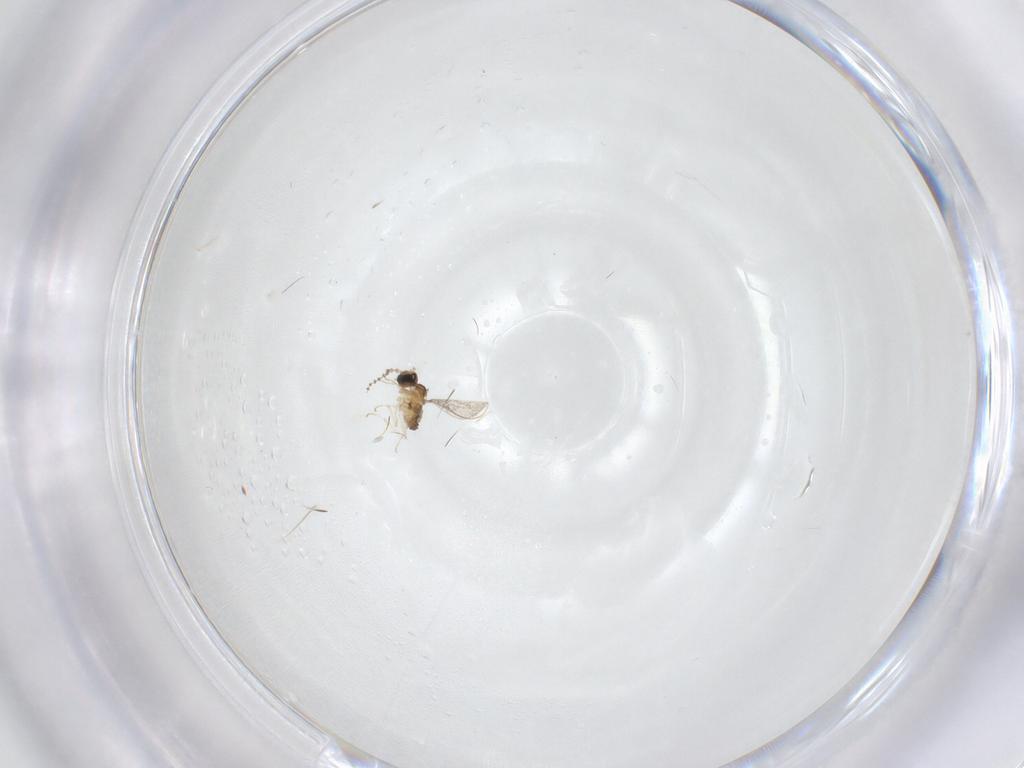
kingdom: Animalia
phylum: Arthropoda
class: Insecta
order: Diptera
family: Cecidomyiidae
